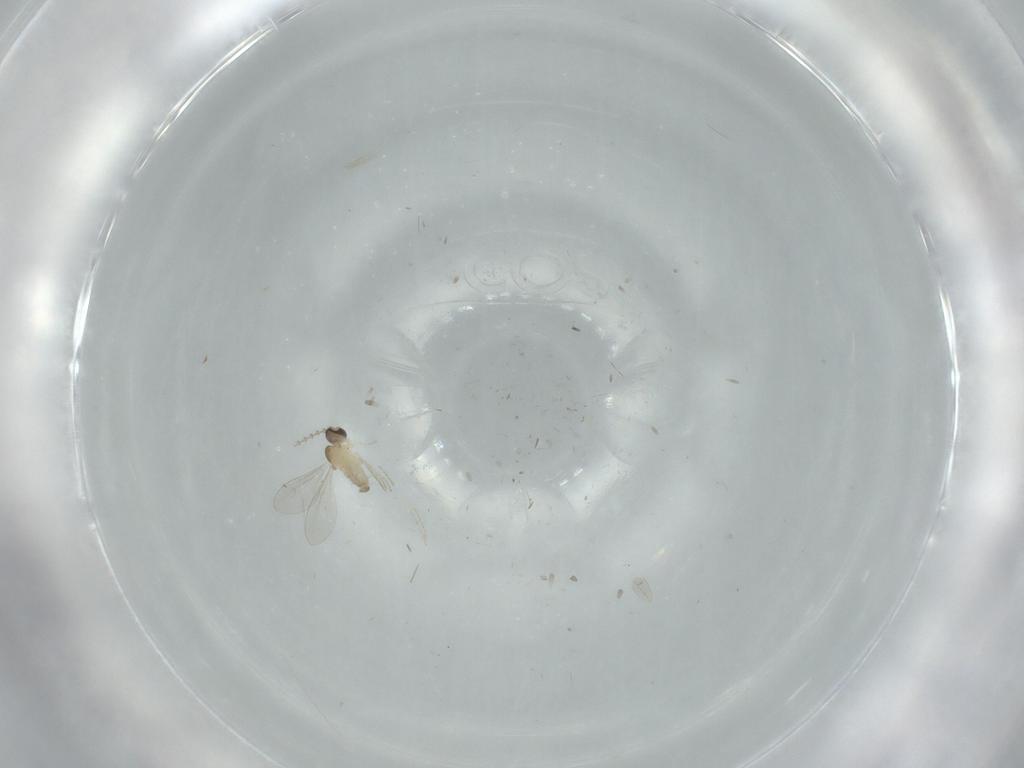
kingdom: Animalia
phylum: Arthropoda
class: Insecta
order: Diptera
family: Cecidomyiidae
